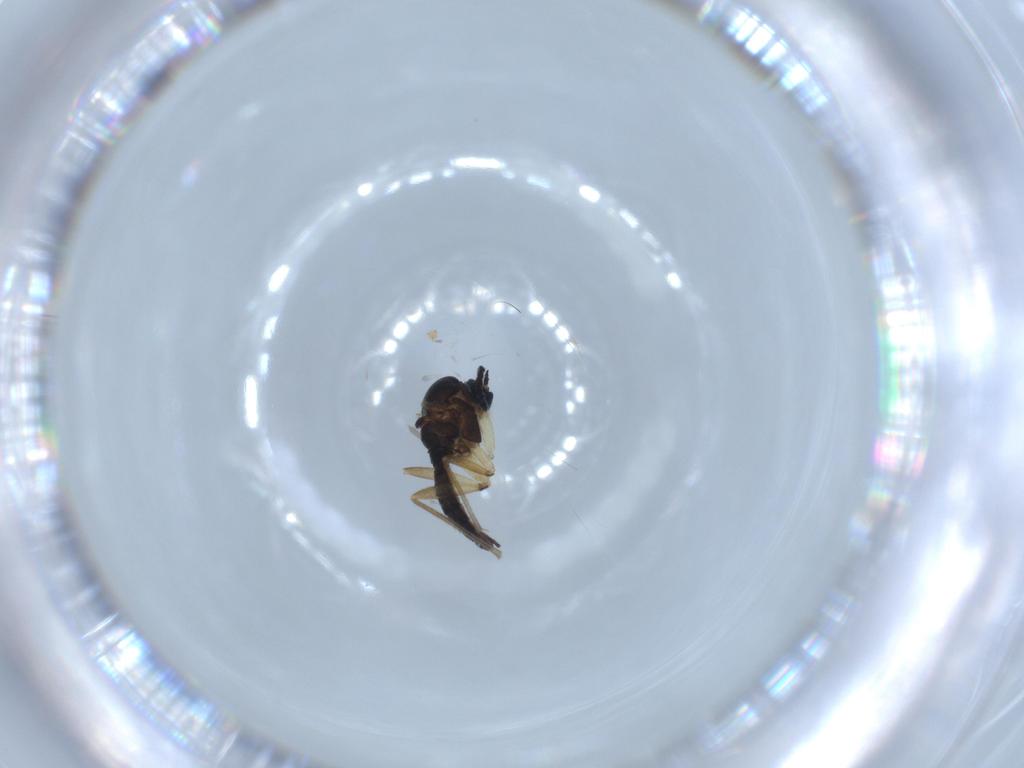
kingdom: Animalia
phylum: Arthropoda
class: Insecta
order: Diptera
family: Sciaridae
